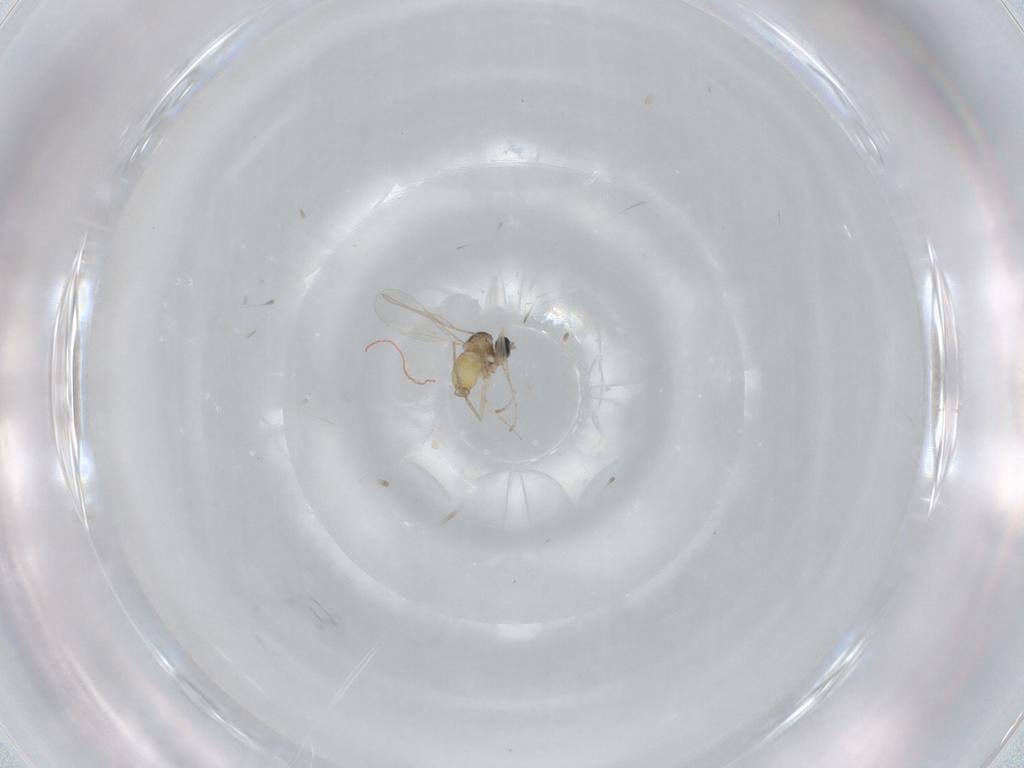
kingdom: Animalia
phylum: Arthropoda
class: Insecta
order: Diptera
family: Cecidomyiidae
